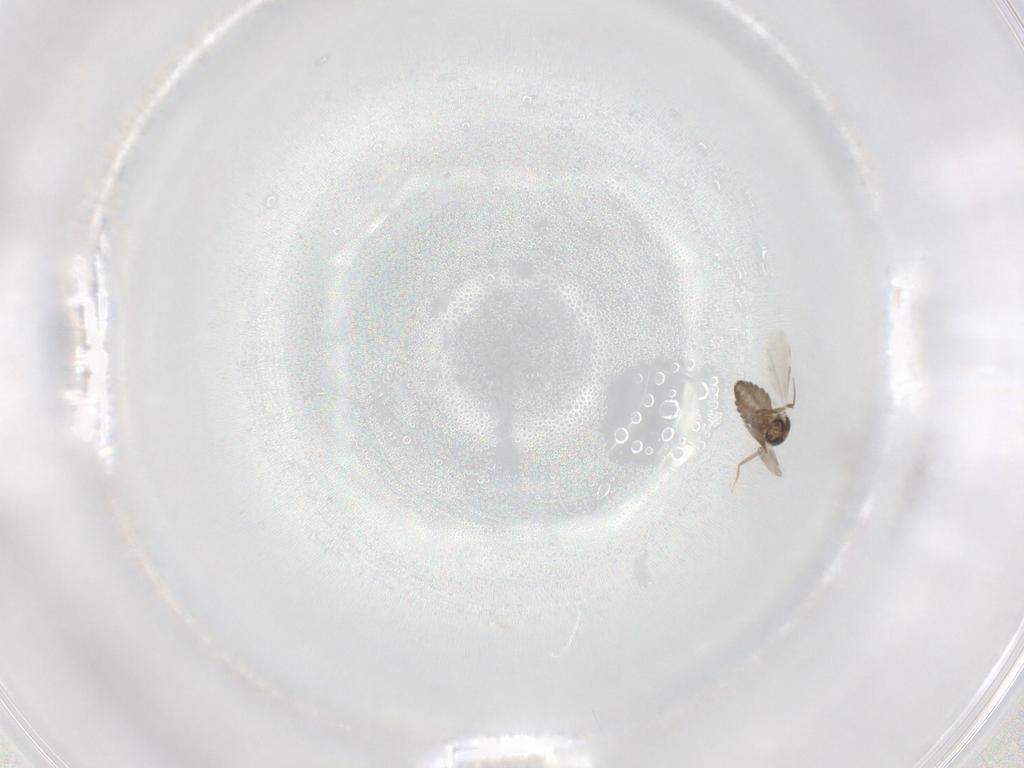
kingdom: Animalia
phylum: Arthropoda
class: Insecta
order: Diptera
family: Ceratopogonidae
